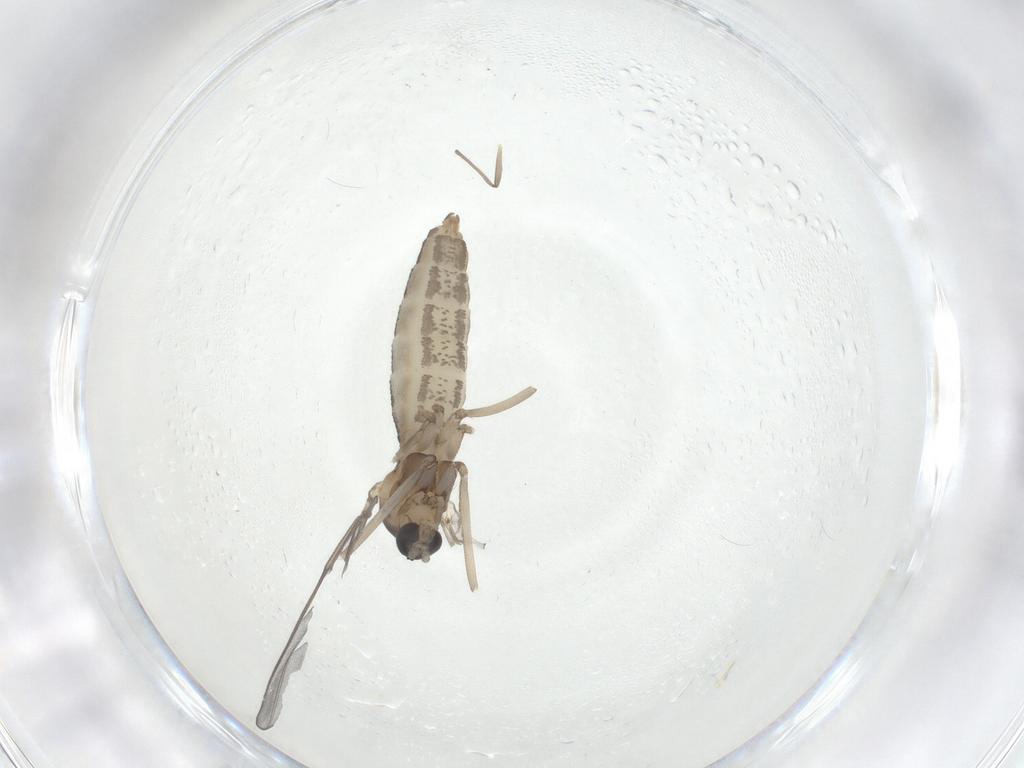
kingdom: Animalia
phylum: Arthropoda
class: Insecta
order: Diptera
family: Cecidomyiidae
